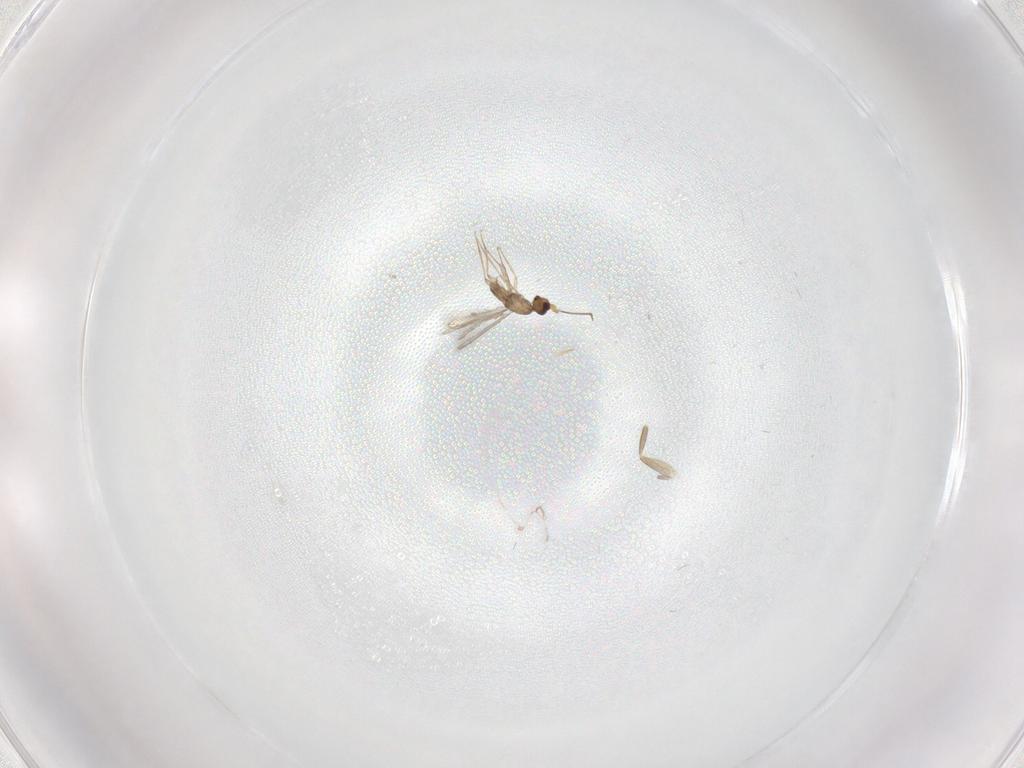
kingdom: Animalia
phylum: Arthropoda
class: Insecta
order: Hymenoptera
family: Mymaridae
